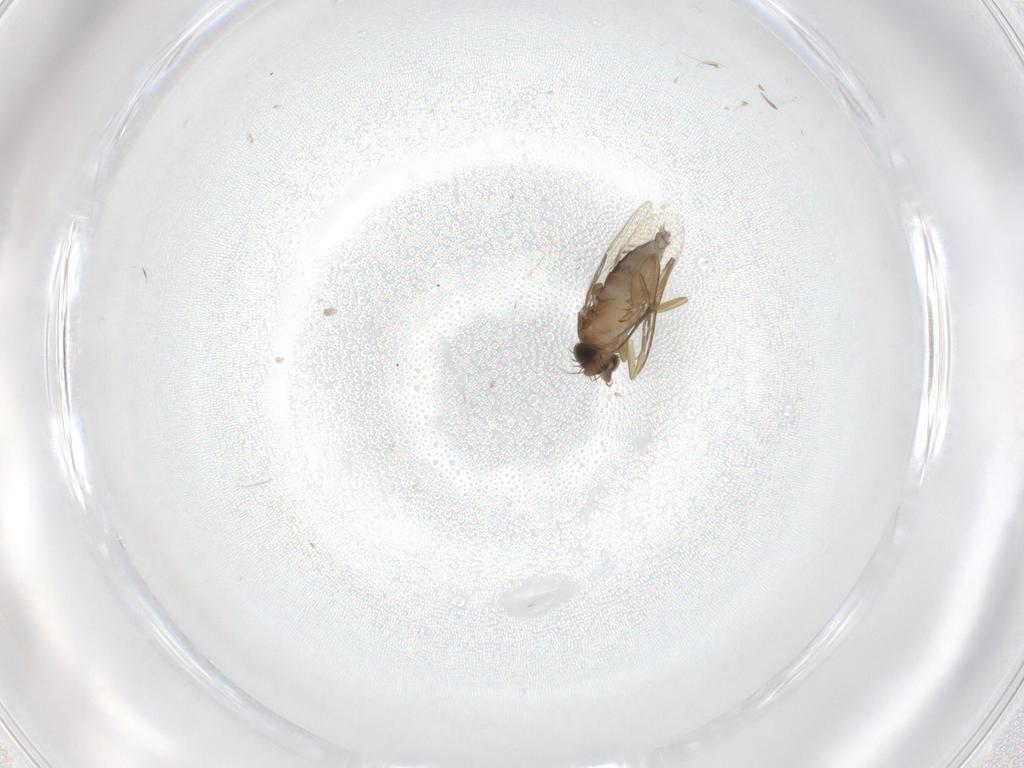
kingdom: Animalia
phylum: Arthropoda
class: Insecta
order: Diptera
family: Phoridae
